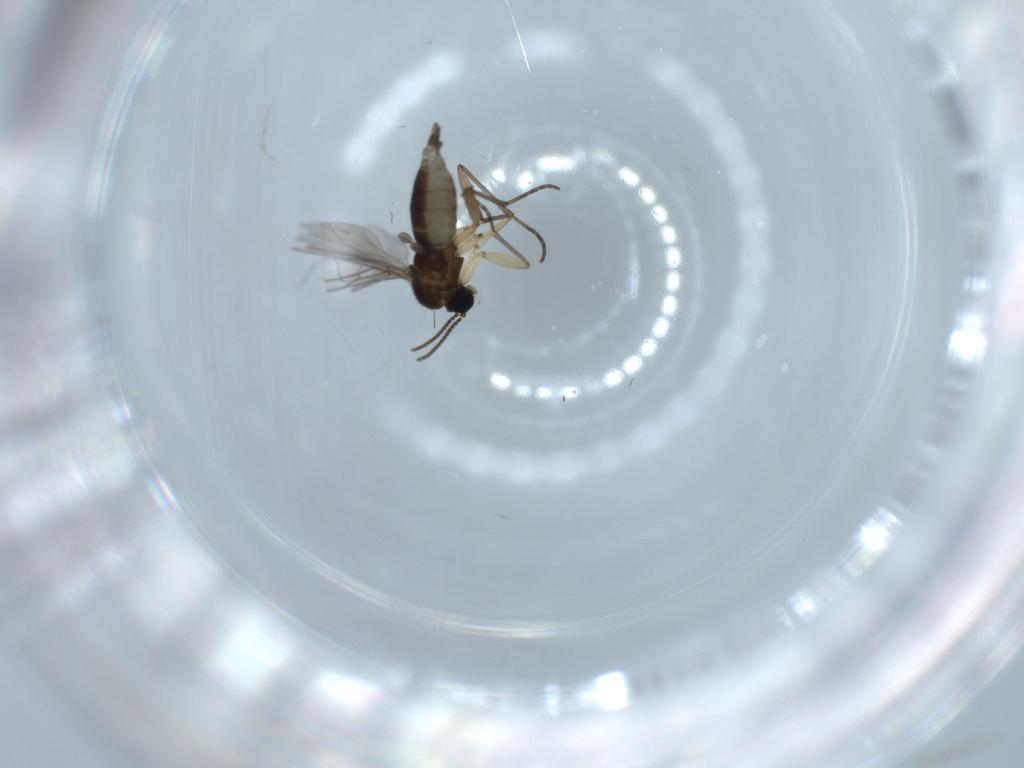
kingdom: Animalia
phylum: Arthropoda
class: Insecta
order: Diptera
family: Sciaridae
